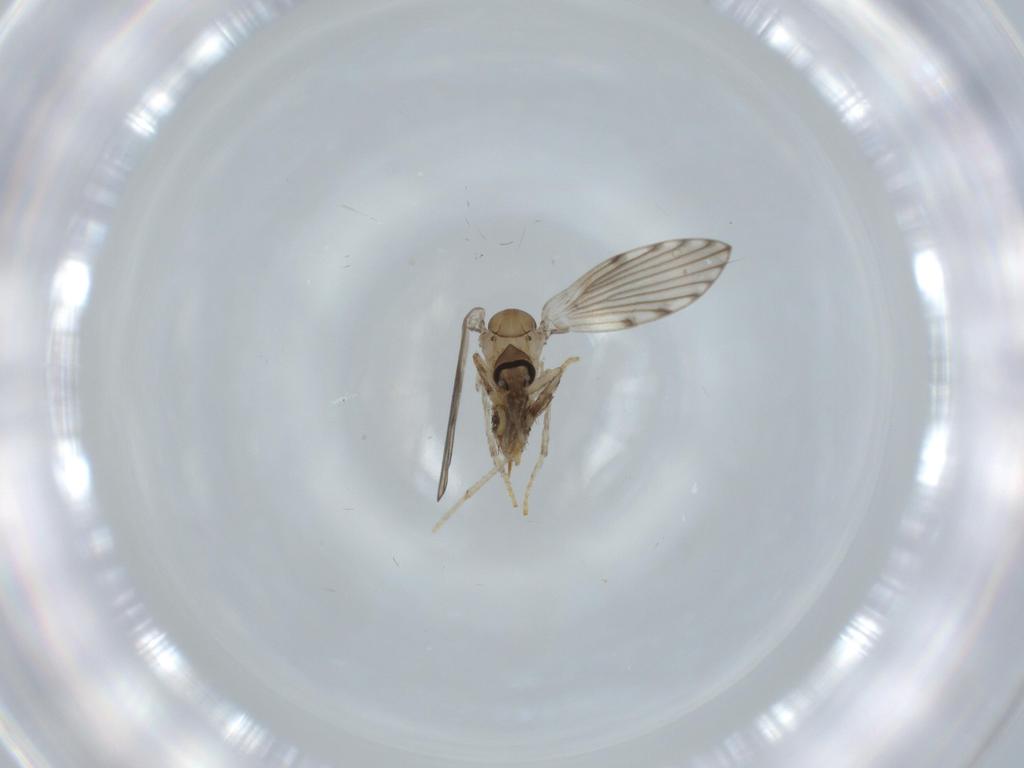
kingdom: Animalia
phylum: Arthropoda
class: Insecta
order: Diptera
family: Psychodidae
